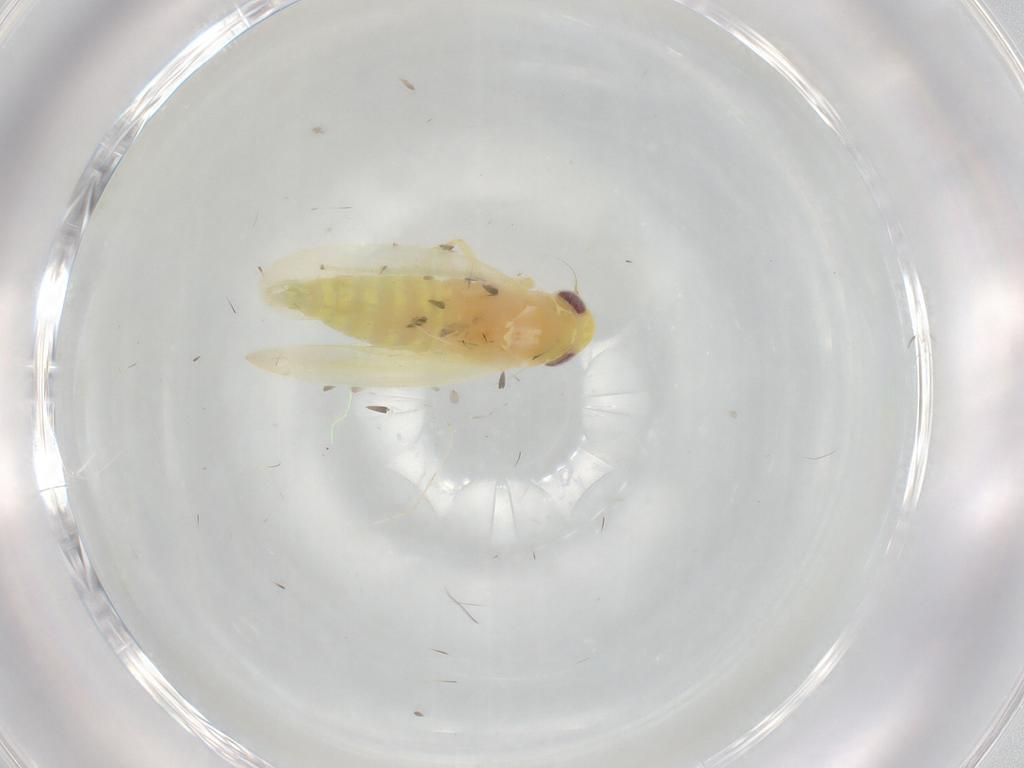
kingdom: Animalia
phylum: Arthropoda
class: Insecta
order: Hemiptera
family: Cicadellidae
